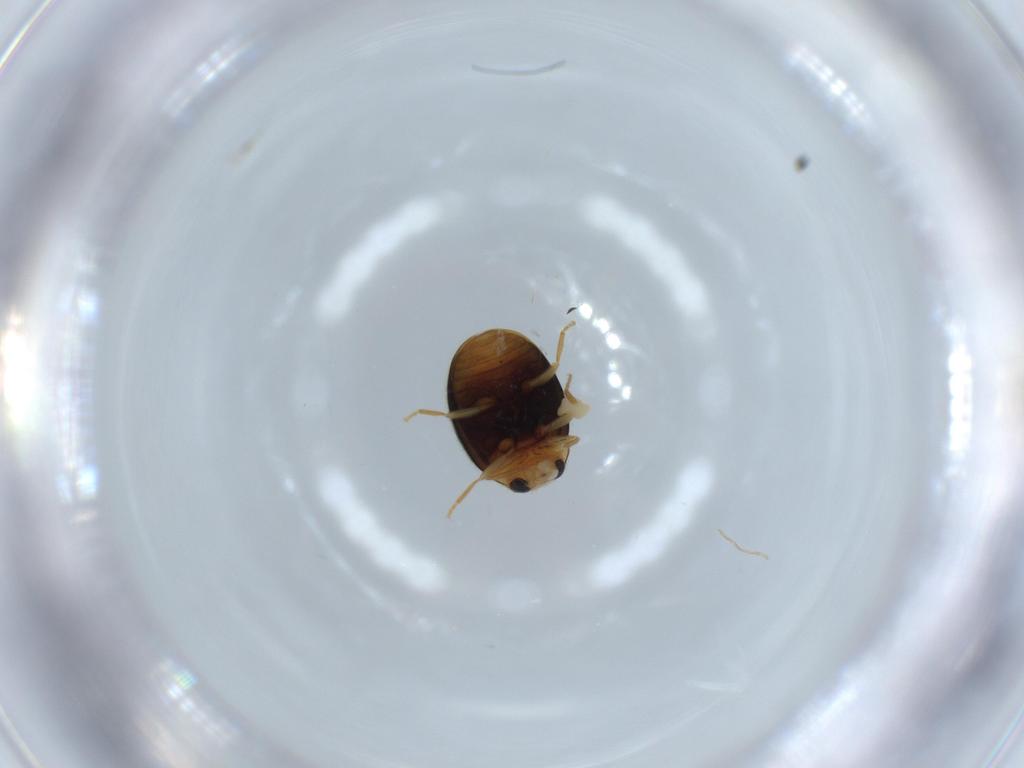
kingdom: Animalia
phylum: Arthropoda
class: Insecta
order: Coleoptera
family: Coccinellidae
